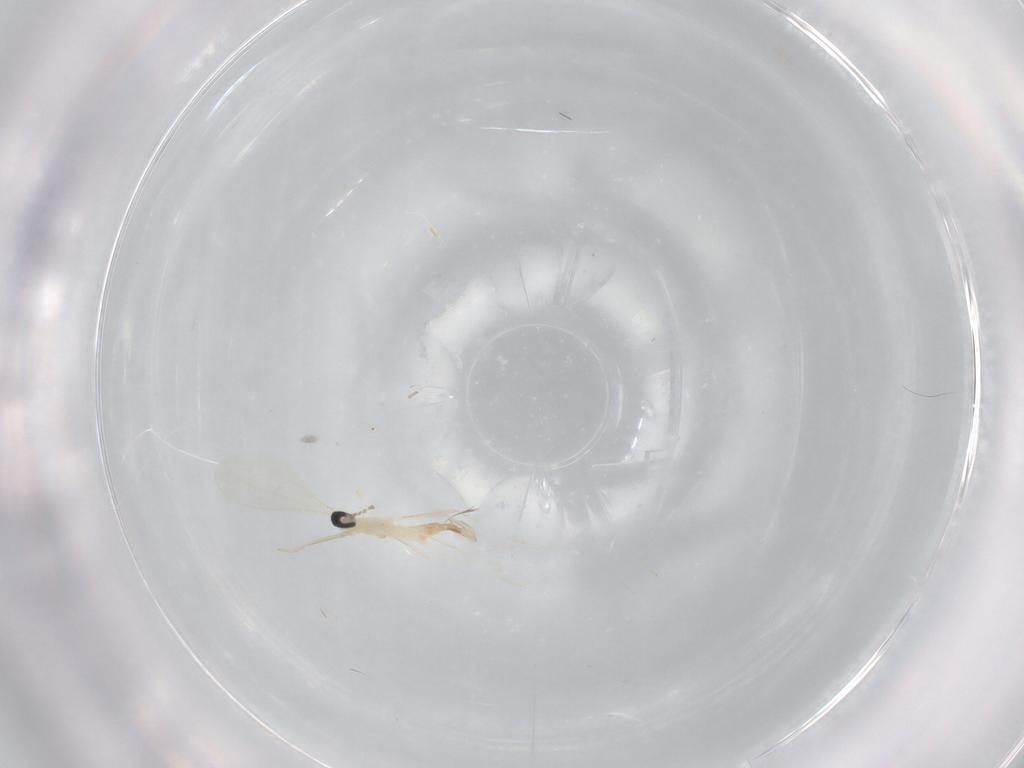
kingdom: Animalia
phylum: Arthropoda
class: Insecta
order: Diptera
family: Cecidomyiidae
